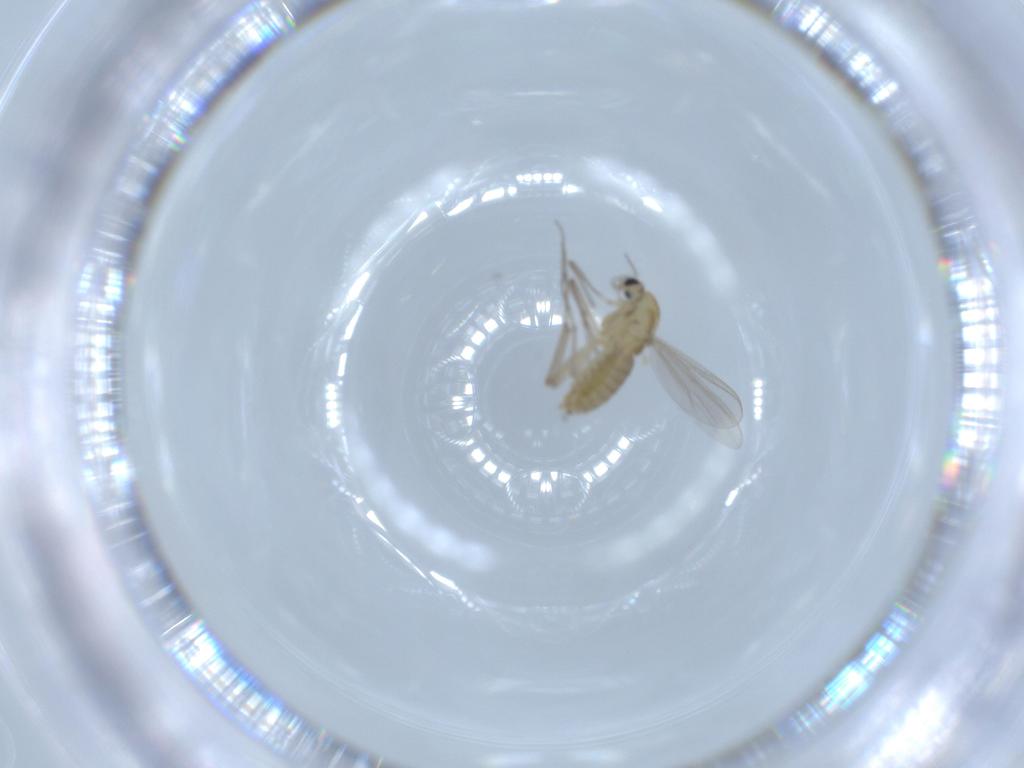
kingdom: Animalia
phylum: Arthropoda
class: Insecta
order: Diptera
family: Chironomidae
